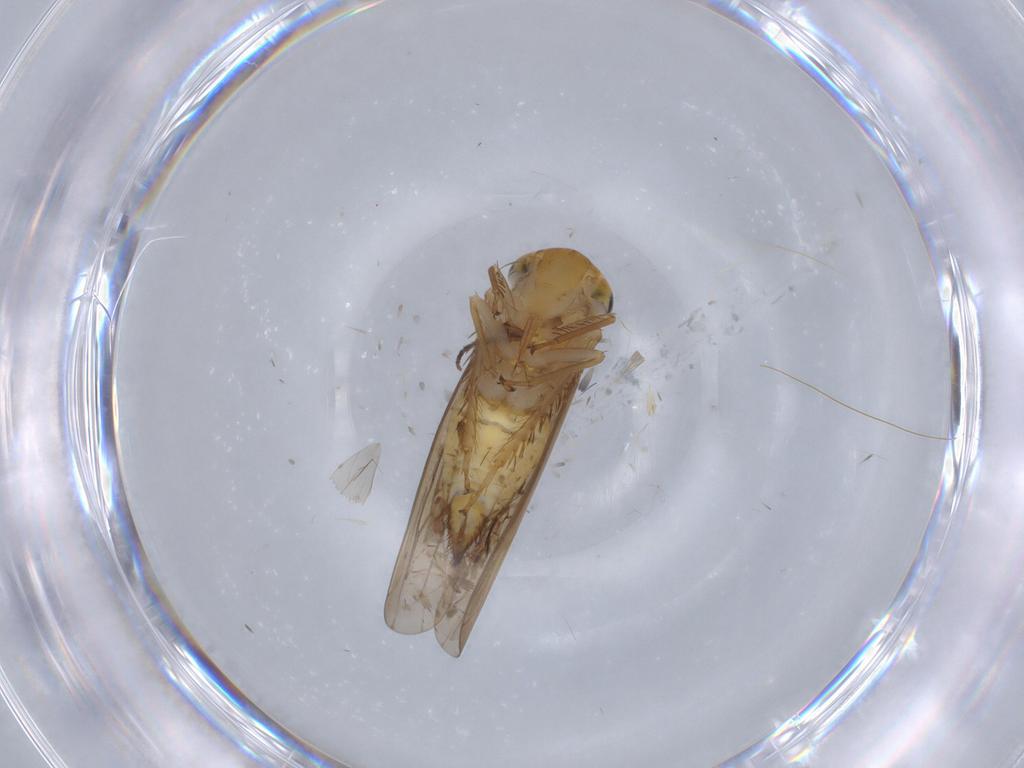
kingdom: Animalia
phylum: Arthropoda
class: Insecta
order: Hemiptera
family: Cicadellidae
